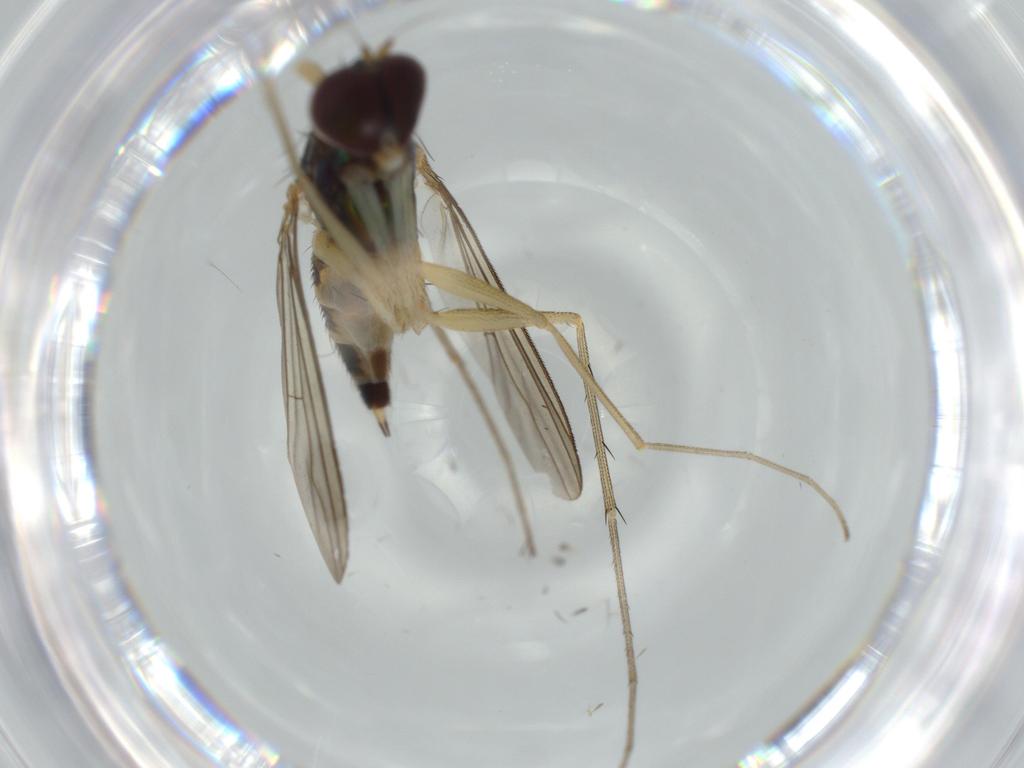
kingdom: Animalia
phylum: Arthropoda
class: Insecta
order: Diptera
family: Dolichopodidae
